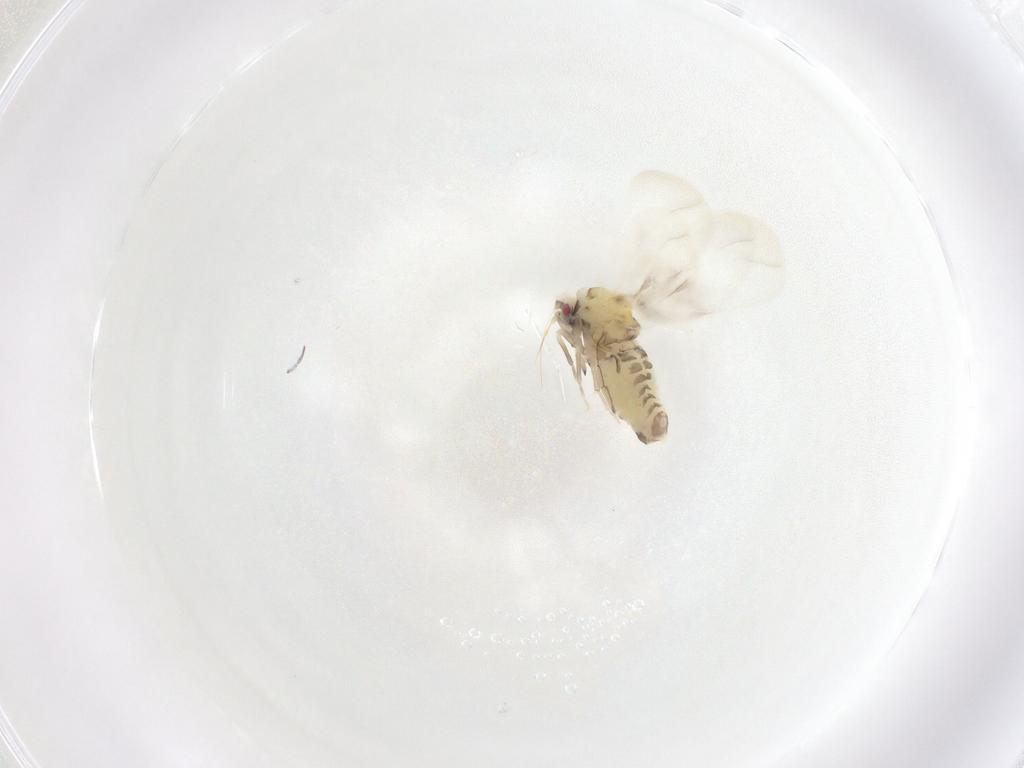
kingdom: Animalia
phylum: Arthropoda
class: Insecta
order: Hemiptera
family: Aleyrodidae
